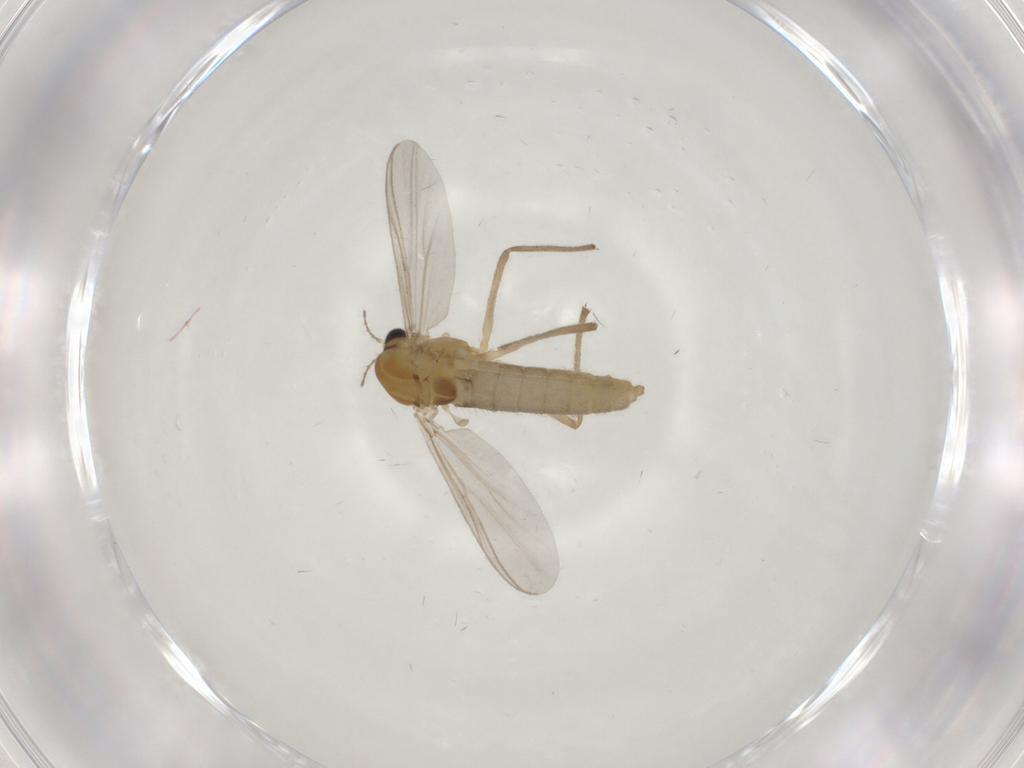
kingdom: Animalia
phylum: Arthropoda
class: Insecta
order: Diptera
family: Chironomidae
